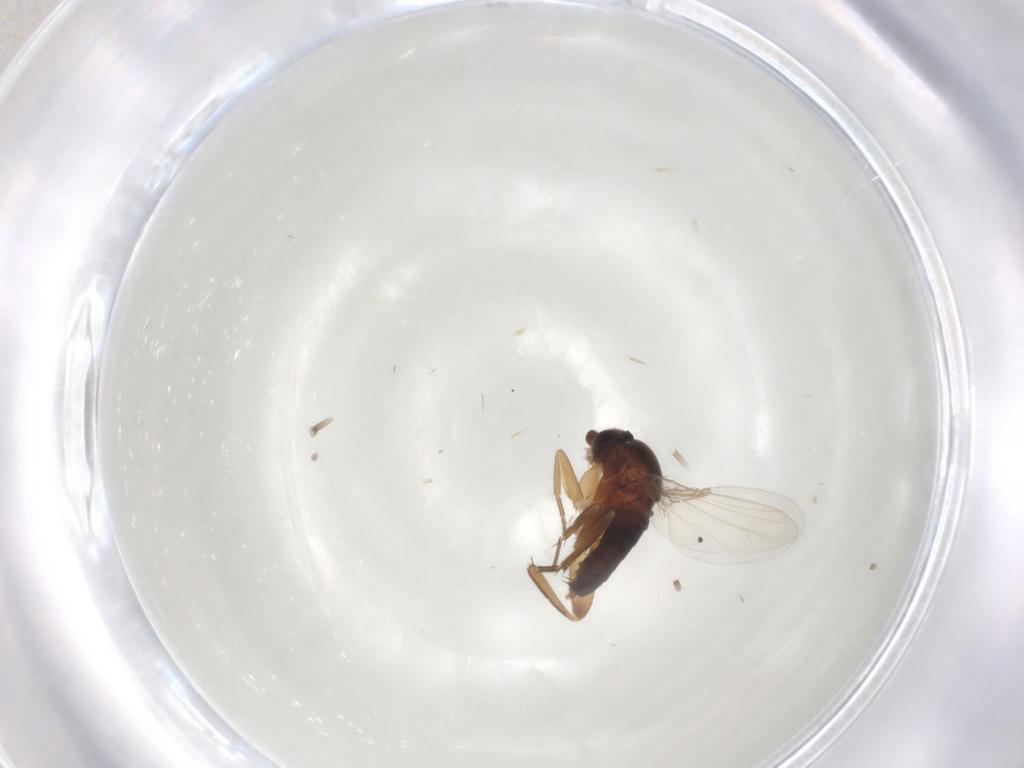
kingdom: Animalia
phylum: Arthropoda
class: Insecta
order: Diptera
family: Phoridae
